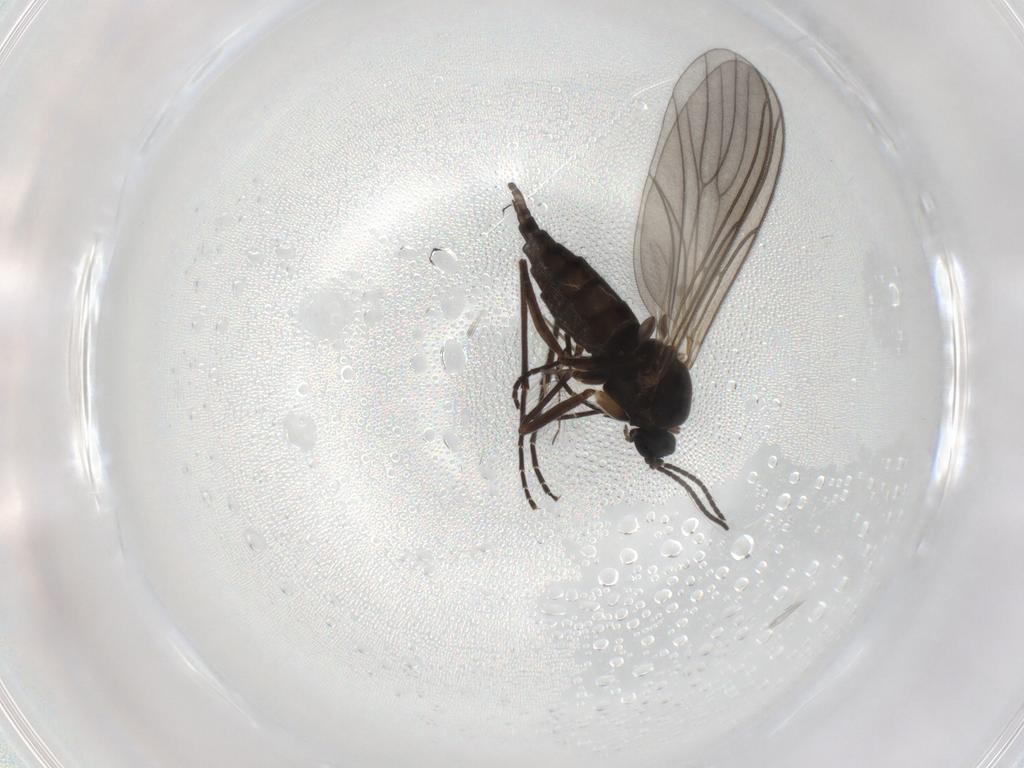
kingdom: Animalia
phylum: Arthropoda
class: Insecta
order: Diptera
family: Sciaridae
